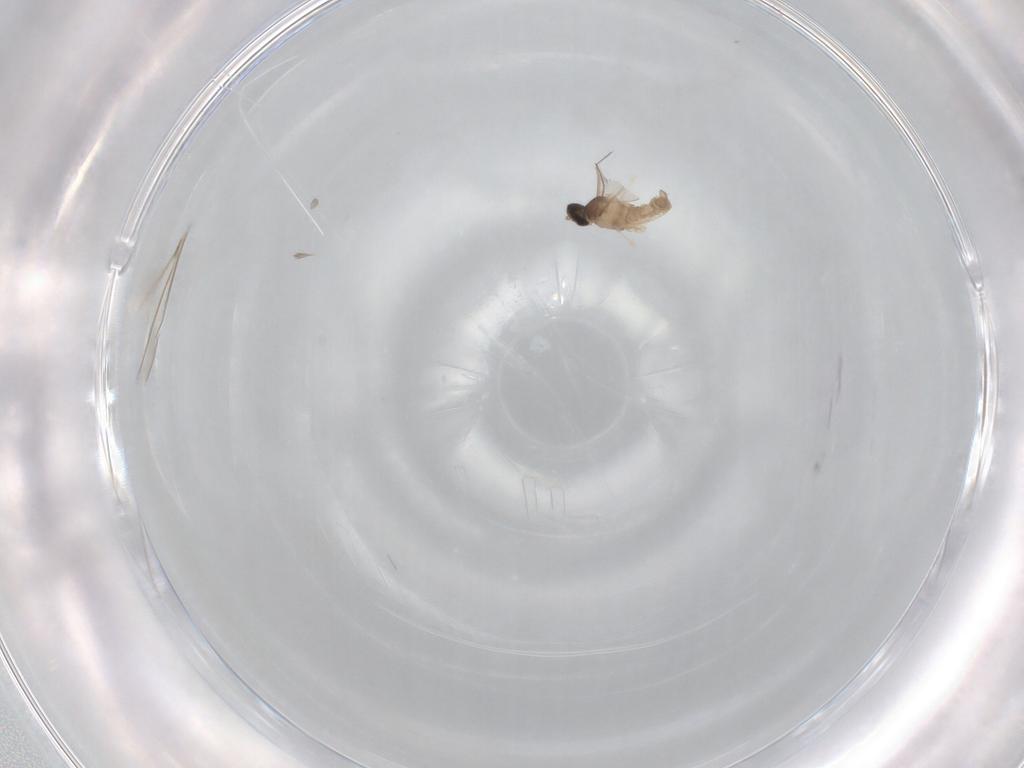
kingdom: Animalia
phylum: Arthropoda
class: Insecta
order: Diptera
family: Cecidomyiidae
